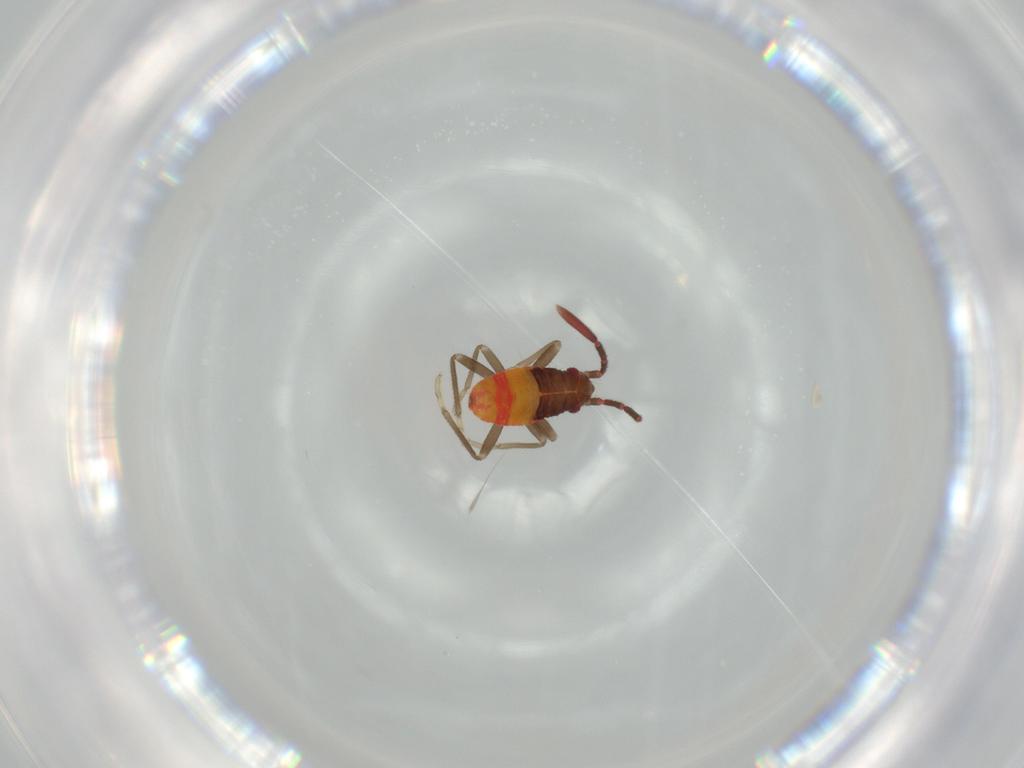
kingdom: Animalia
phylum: Arthropoda
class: Insecta
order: Hemiptera
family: Rhyparochromidae
